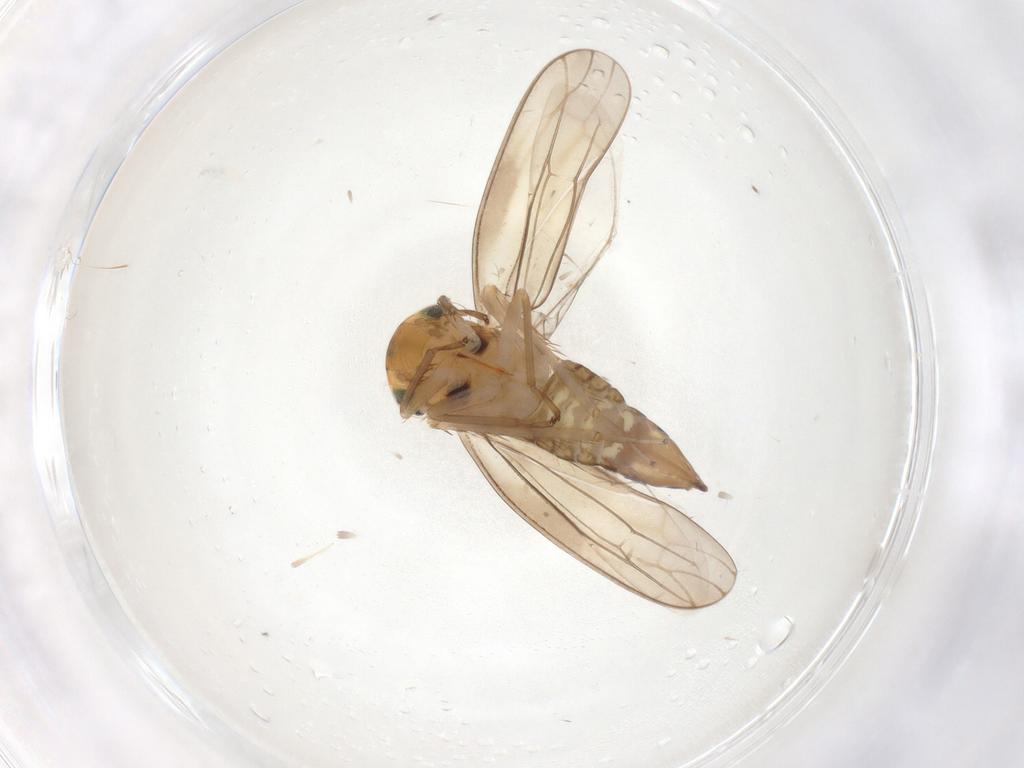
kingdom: Animalia
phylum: Arthropoda
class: Insecta
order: Hemiptera
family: Cicadellidae
